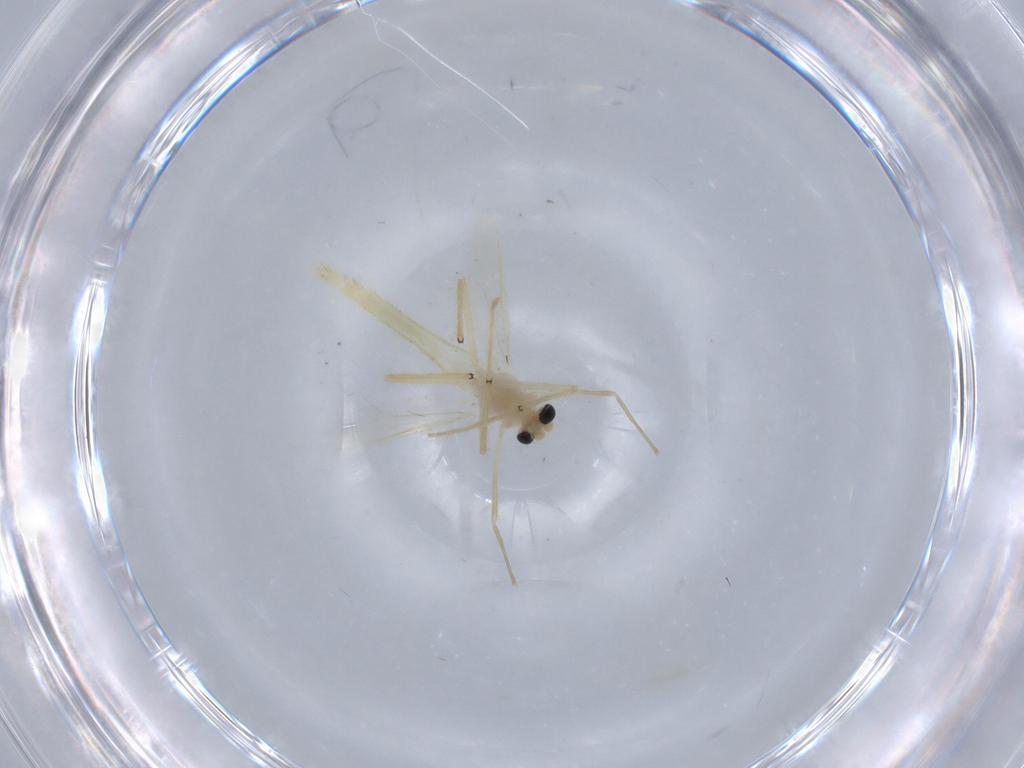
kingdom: Animalia
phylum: Arthropoda
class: Insecta
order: Diptera
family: Chironomidae
